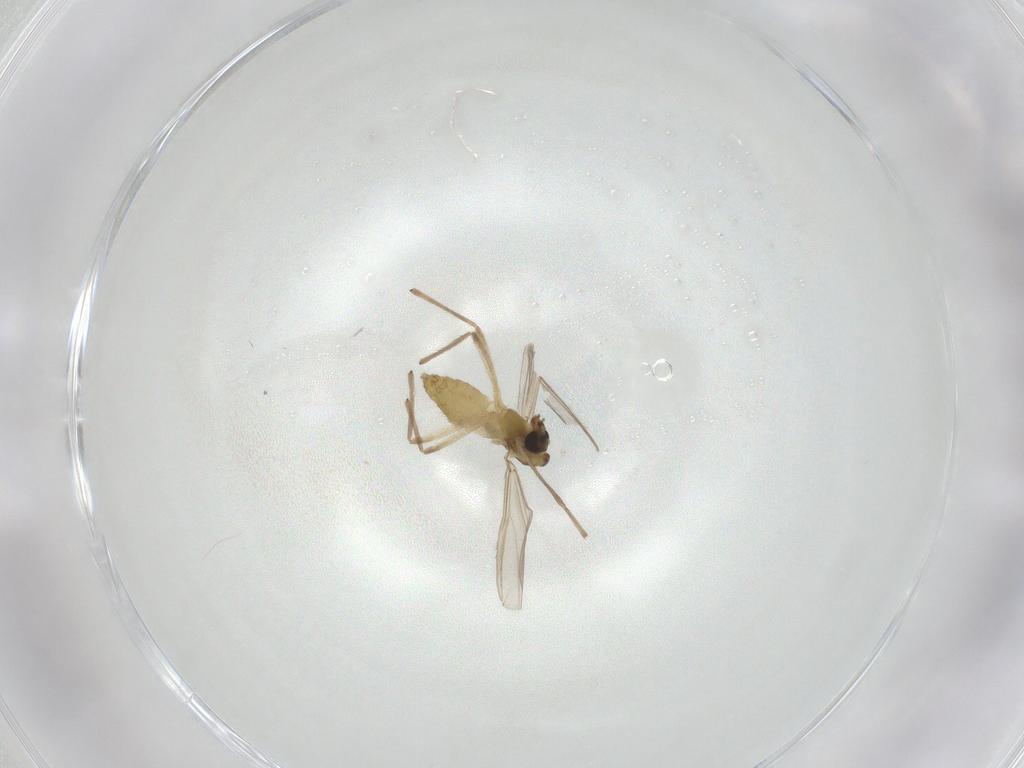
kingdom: Animalia
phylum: Arthropoda
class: Insecta
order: Diptera
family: Chironomidae
